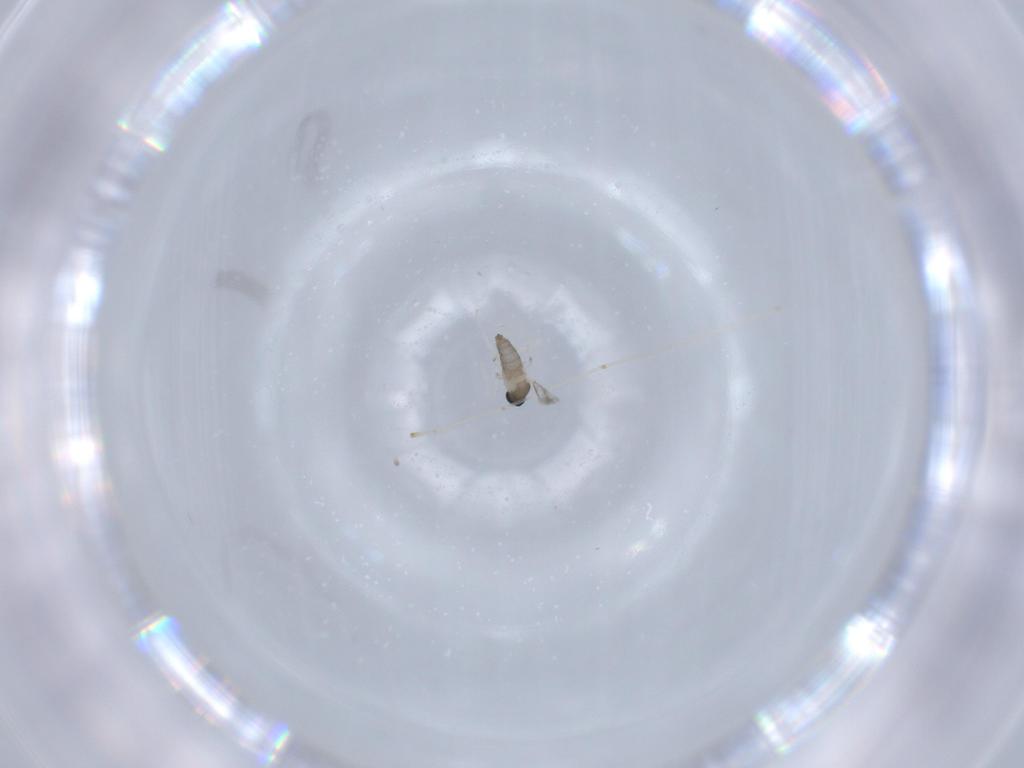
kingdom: Animalia
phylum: Arthropoda
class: Insecta
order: Diptera
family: Cecidomyiidae
